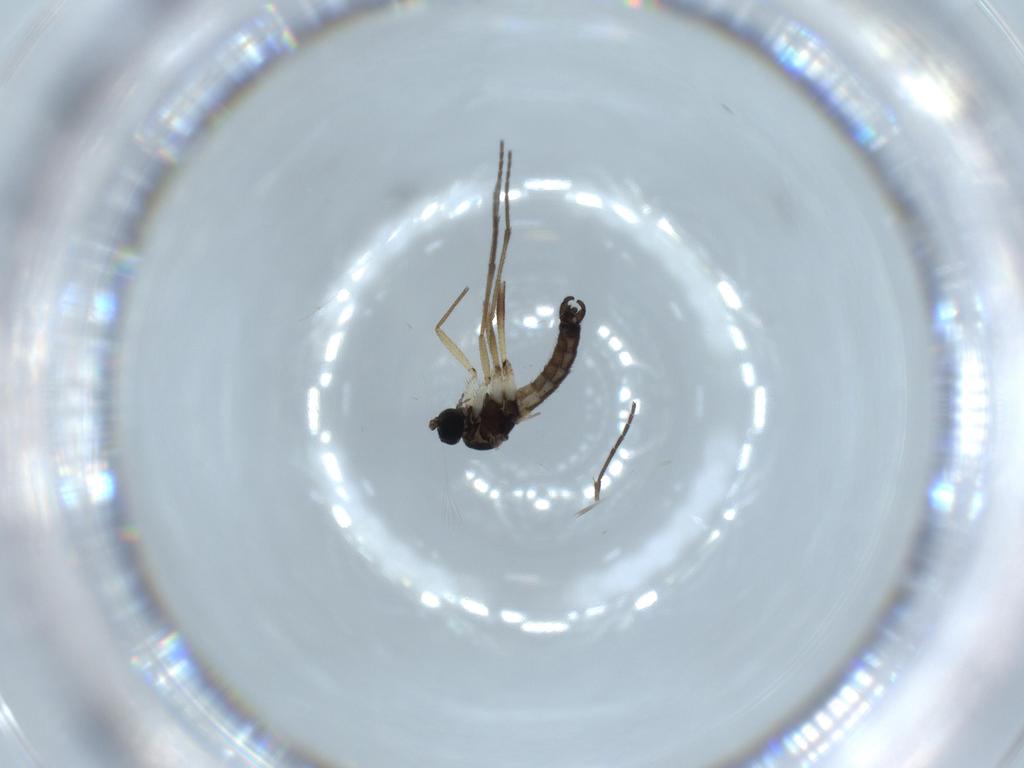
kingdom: Animalia
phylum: Arthropoda
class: Insecta
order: Diptera
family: Sciaridae
